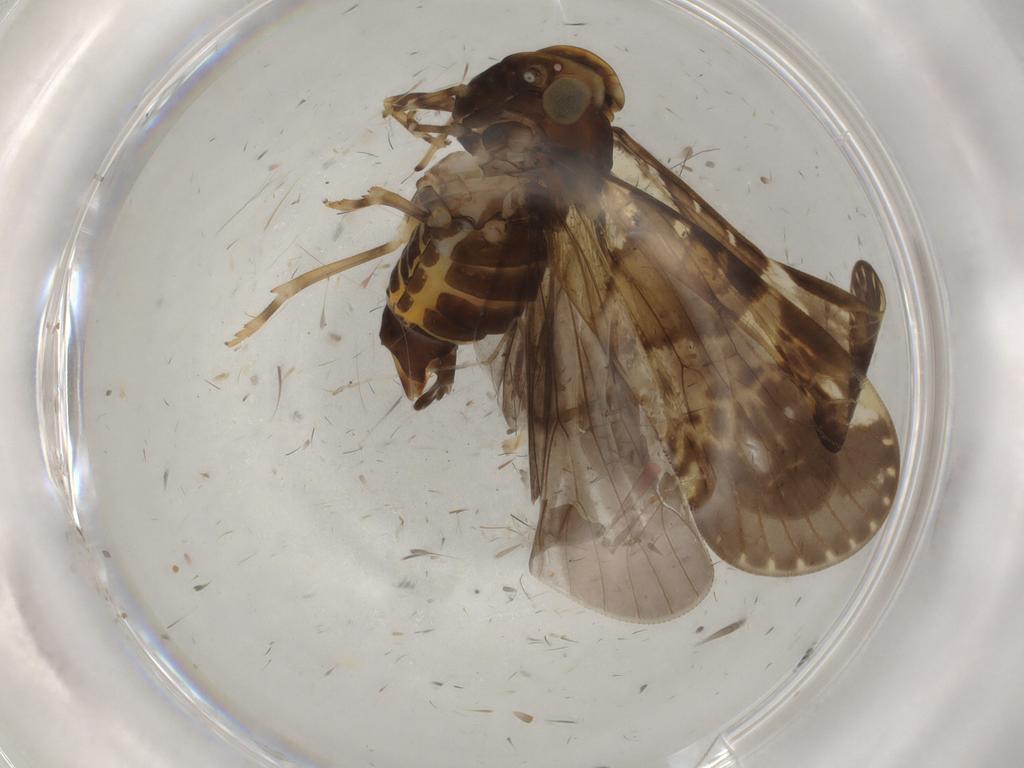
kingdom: Animalia
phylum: Arthropoda
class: Insecta
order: Hemiptera
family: Cixiidae
